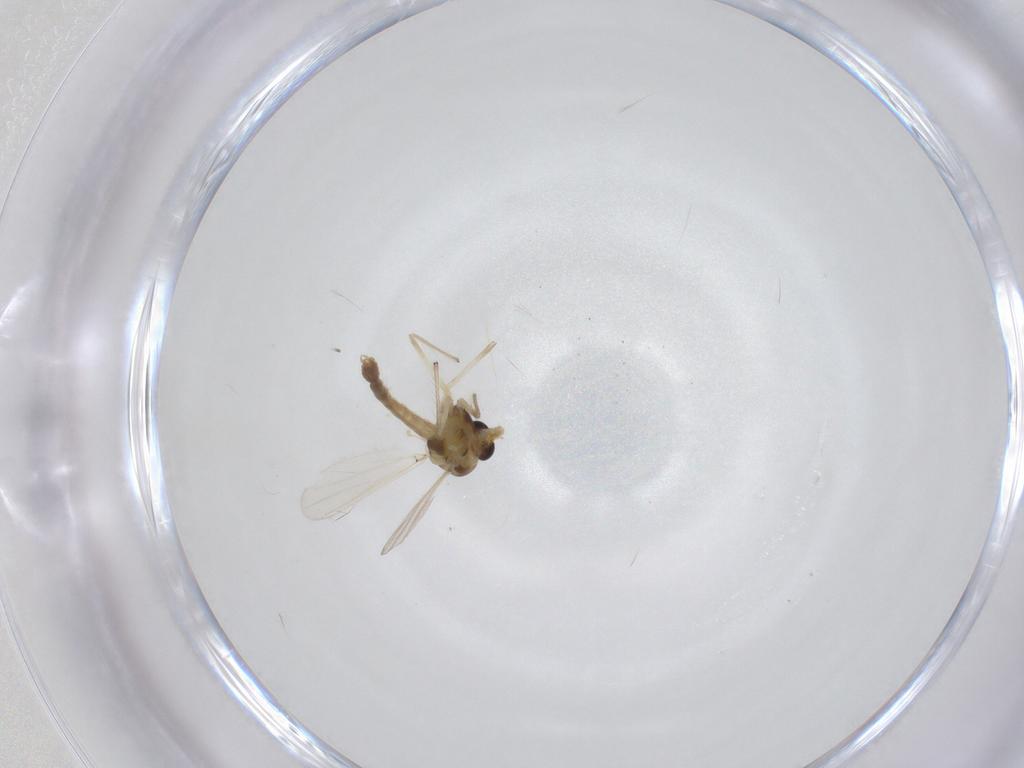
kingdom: Animalia
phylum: Arthropoda
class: Insecta
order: Diptera
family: Chironomidae
